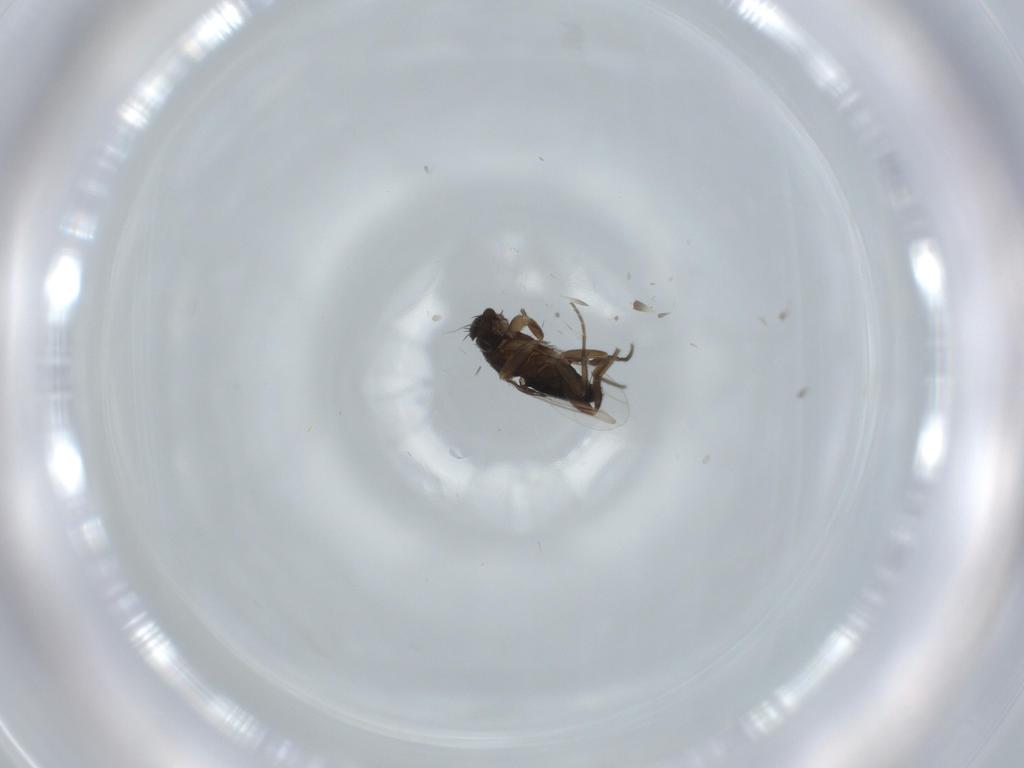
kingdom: Animalia
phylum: Arthropoda
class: Insecta
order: Diptera
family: Phoridae
